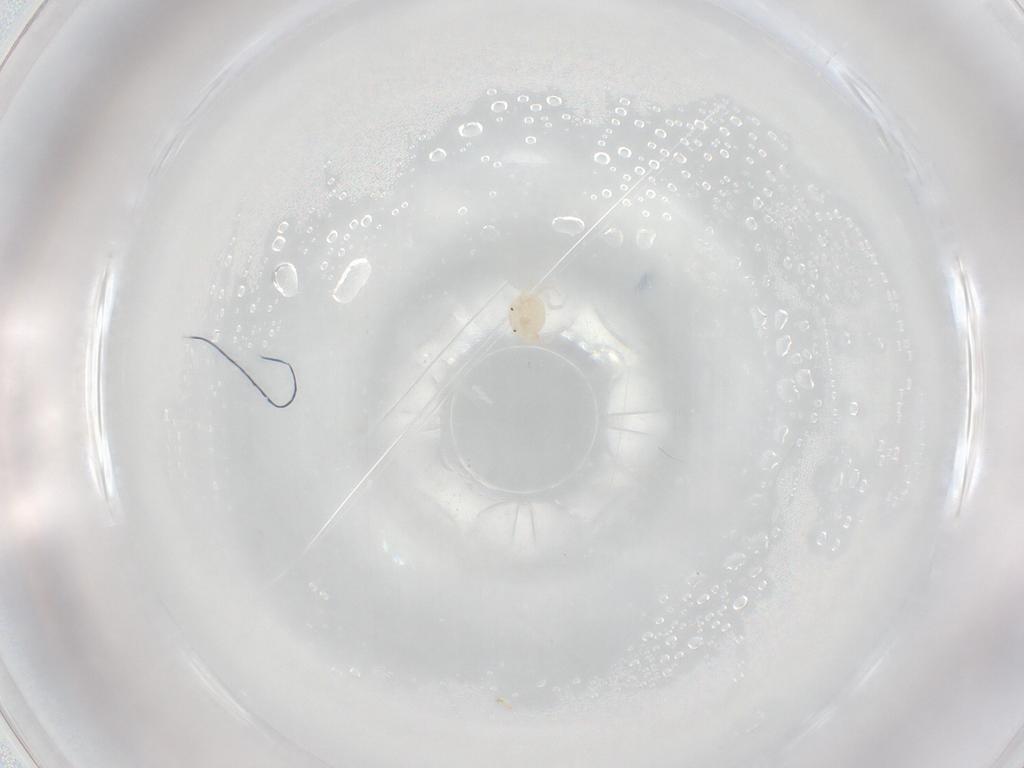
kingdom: Animalia
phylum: Arthropoda
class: Arachnida
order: Trombidiformes
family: Sperchontidae
